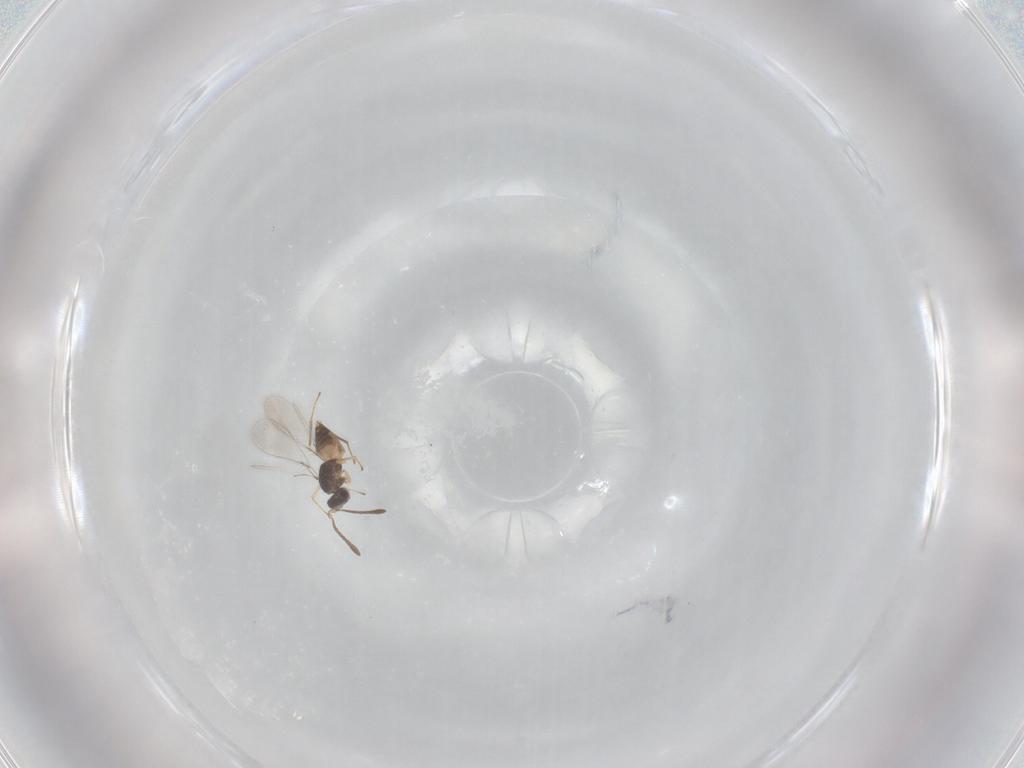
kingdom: Animalia
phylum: Arthropoda
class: Insecta
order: Hymenoptera
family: Mymaridae
